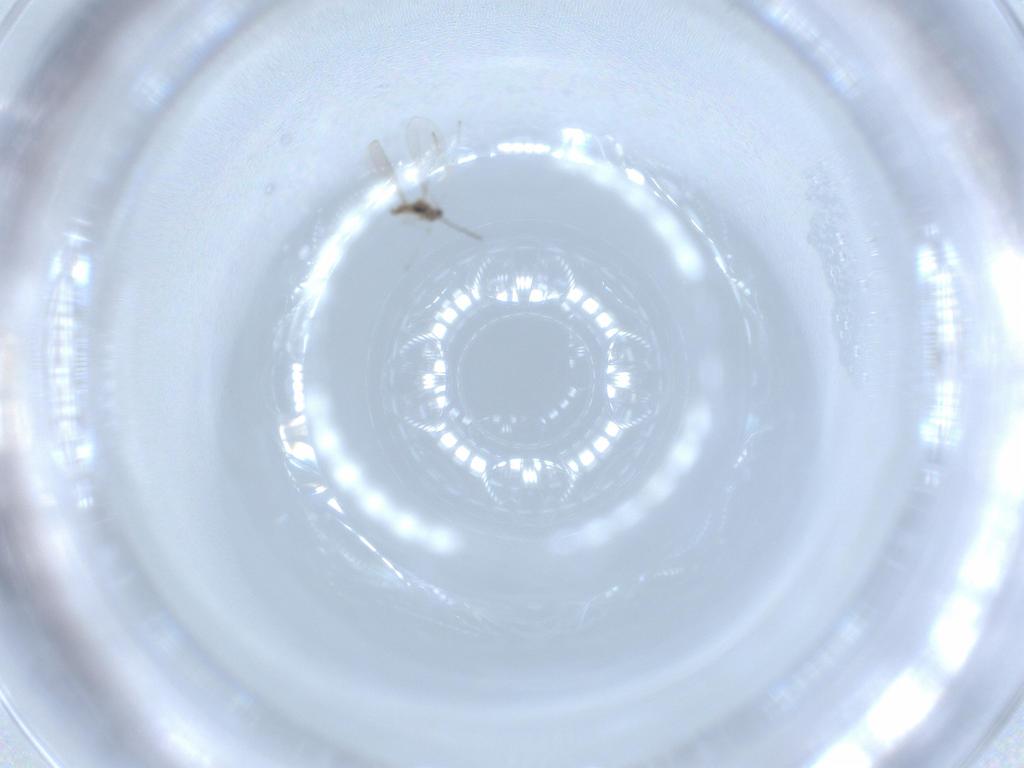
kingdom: Animalia
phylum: Arthropoda
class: Insecta
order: Diptera
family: Cecidomyiidae
